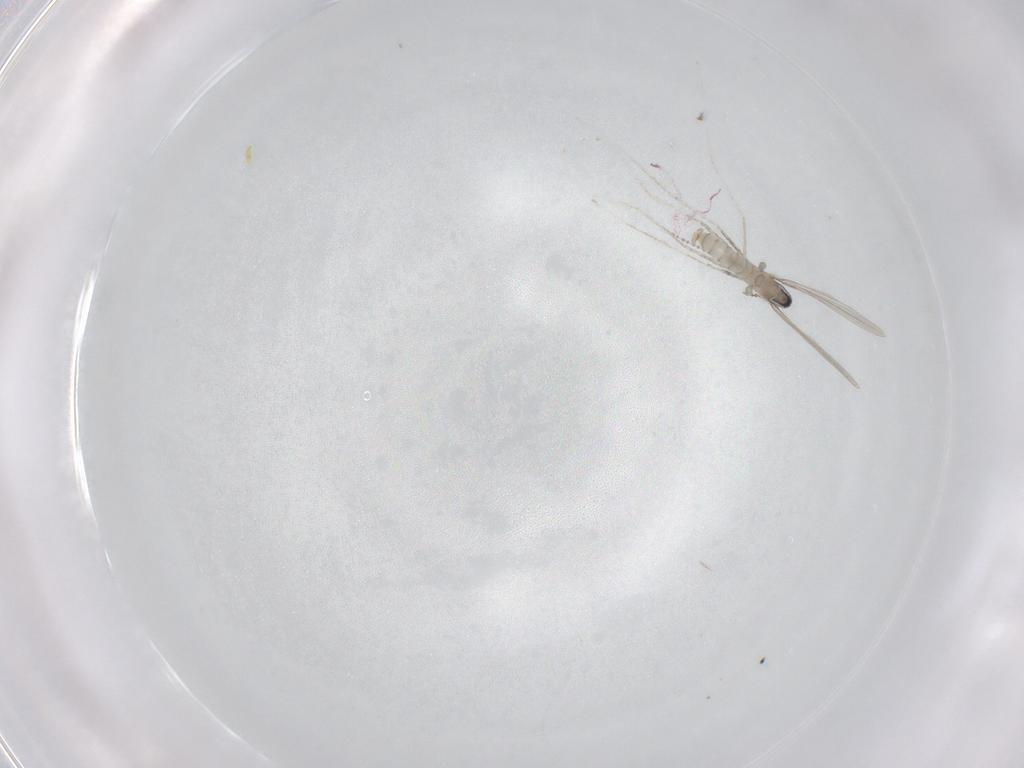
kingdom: Animalia
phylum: Arthropoda
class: Insecta
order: Diptera
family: Cecidomyiidae
